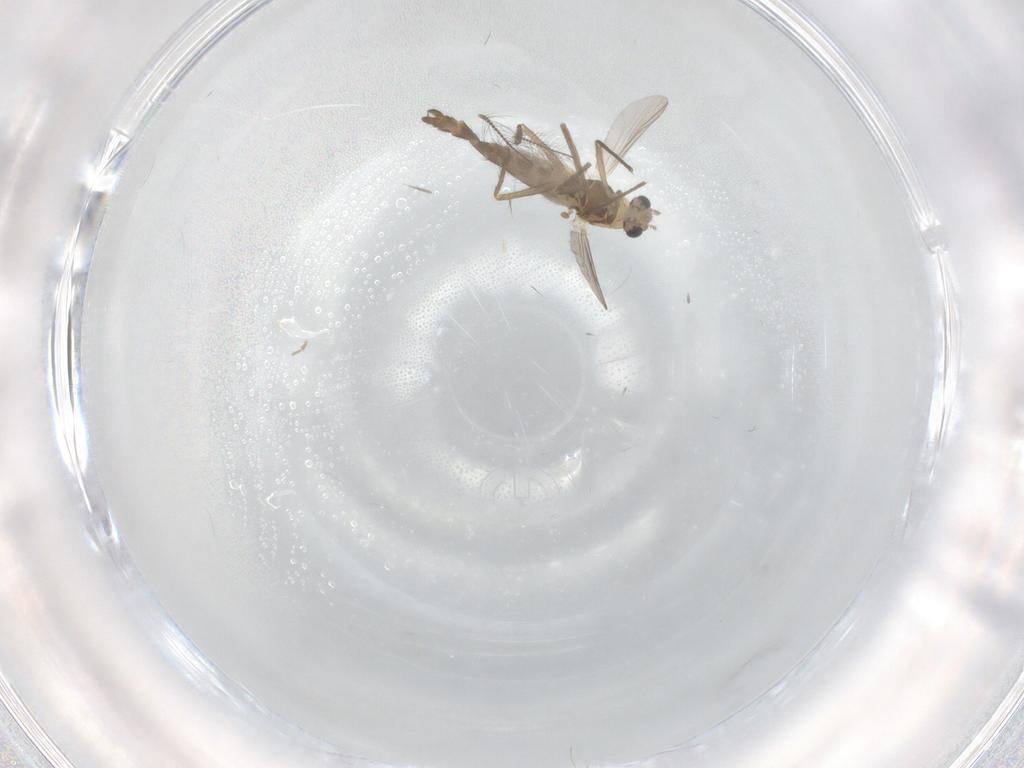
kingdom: Animalia
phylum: Arthropoda
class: Insecta
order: Diptera
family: Chironomidae
